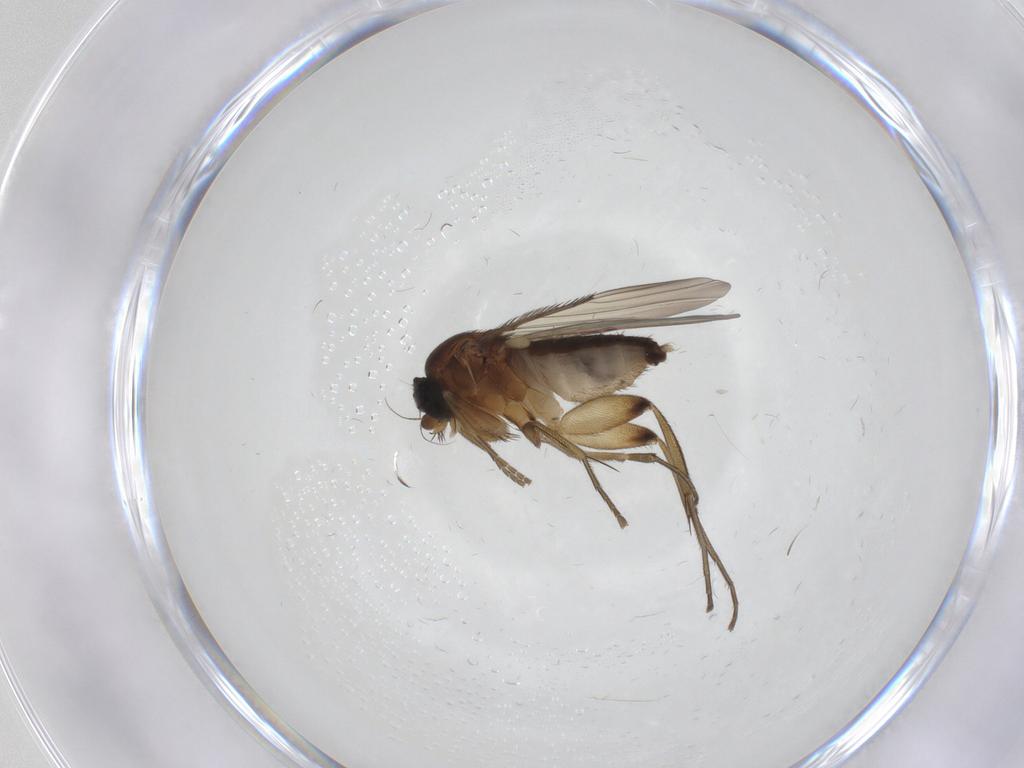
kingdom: Animalia
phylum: Arthropoda
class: Insecta
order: Diptera
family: Phoridae
